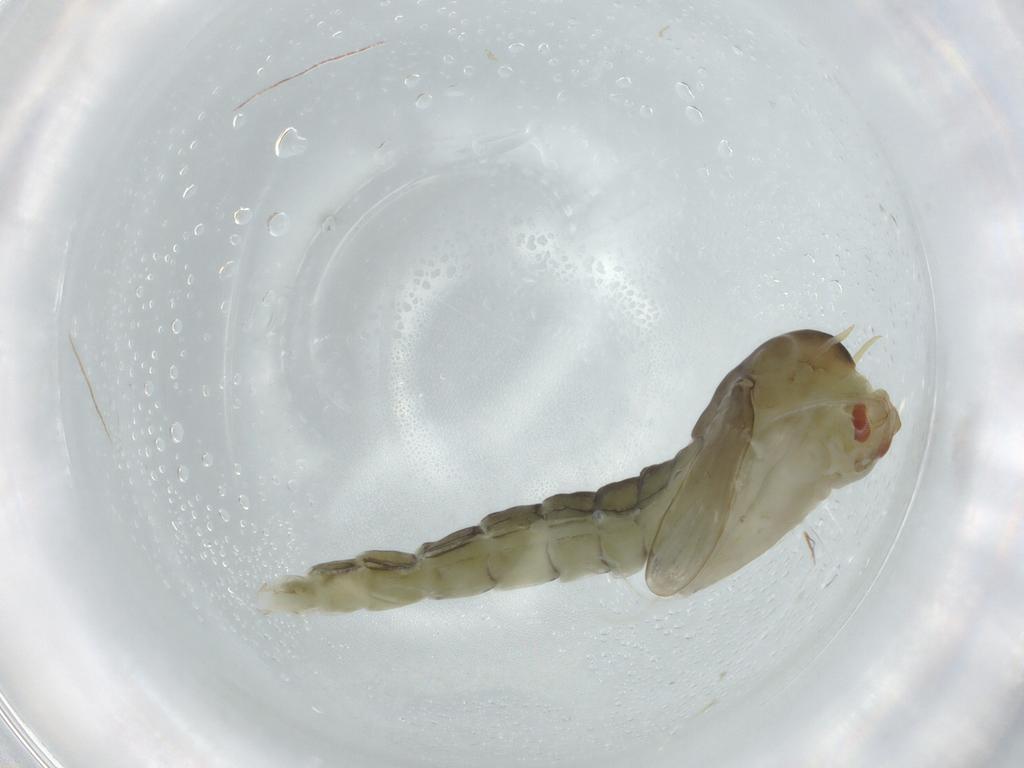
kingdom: Animalia
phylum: Arthropoda
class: Insecta
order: Diptera
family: Chloropidae
